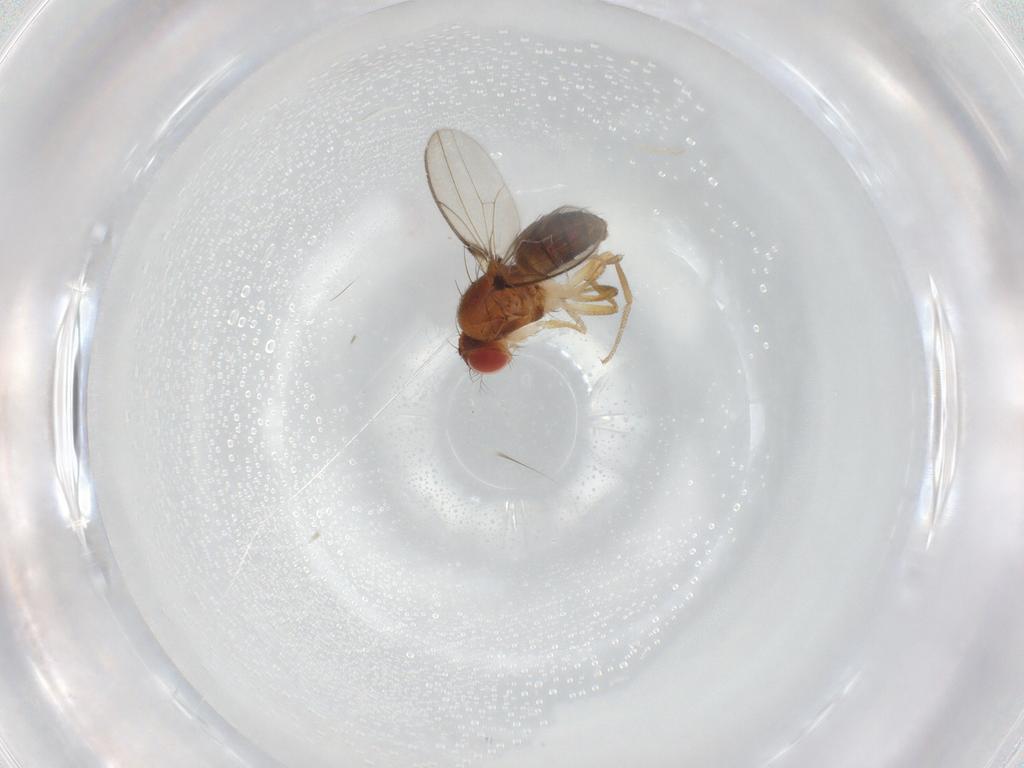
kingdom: Animalia
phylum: Arthropoda
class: Insecta
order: Diptera
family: Drosophilidae
